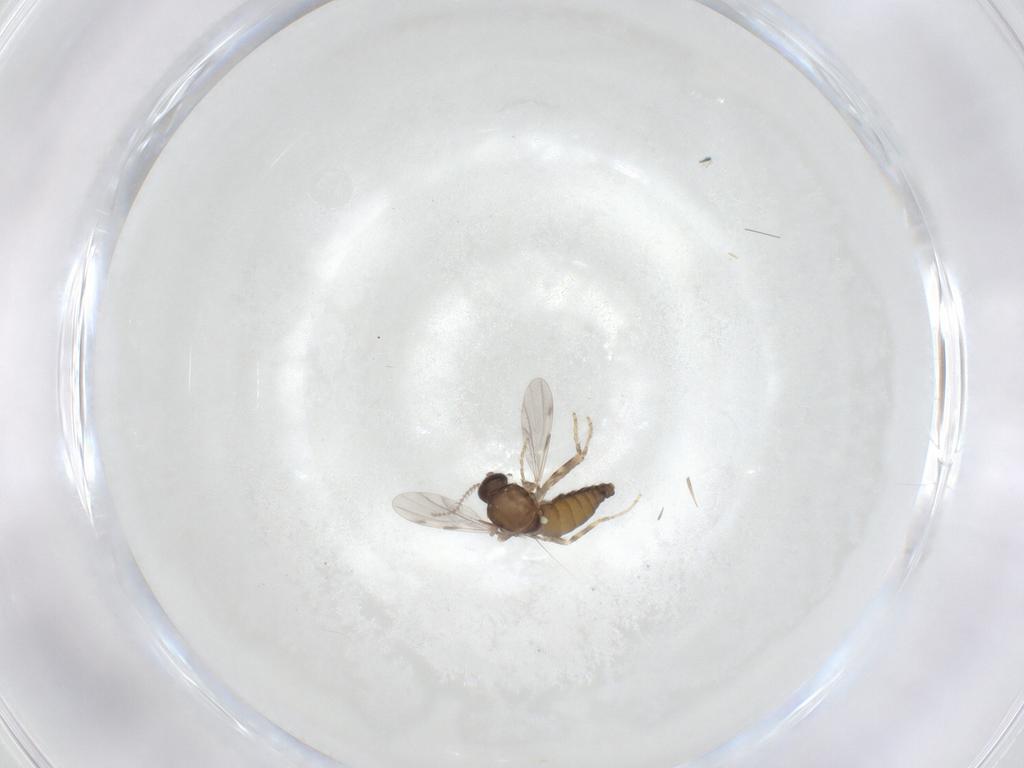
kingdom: Animalia
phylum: Arthropoda
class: Insecta
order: Diptera
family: Ceratopogonidae
